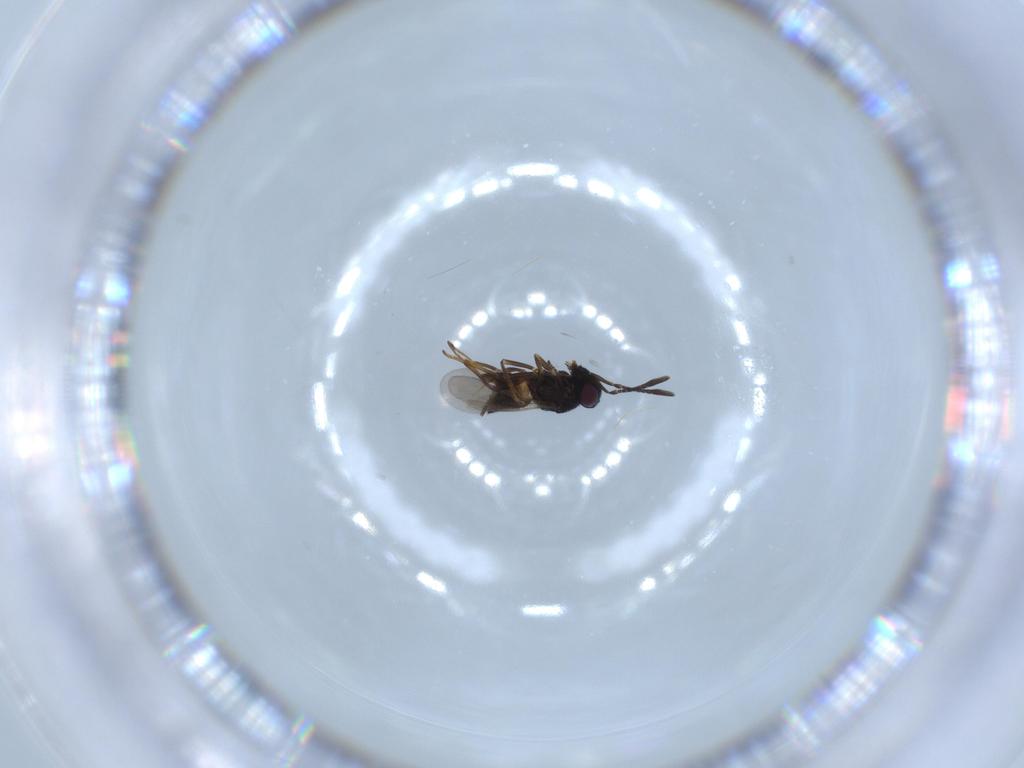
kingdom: Animalia
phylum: Arthropoda
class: Insecta
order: Hymenoptera
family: Encyrtidae
